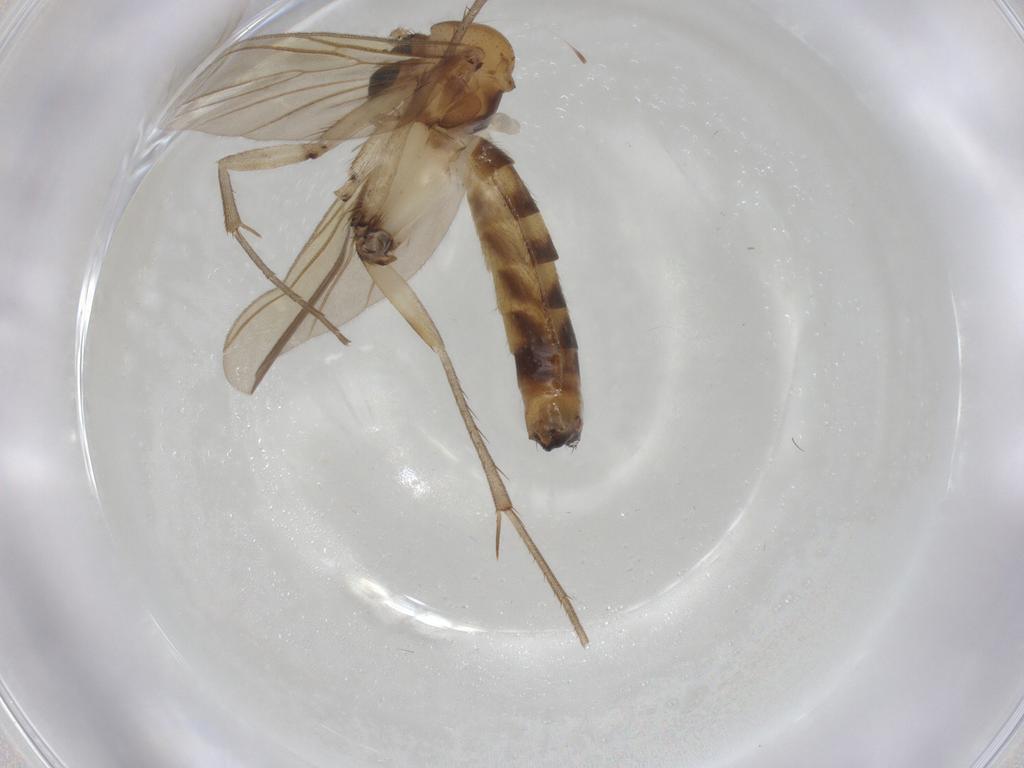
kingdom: Animalia
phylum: Arthropoda
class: Insecta
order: Diptera
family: Chironomidae
